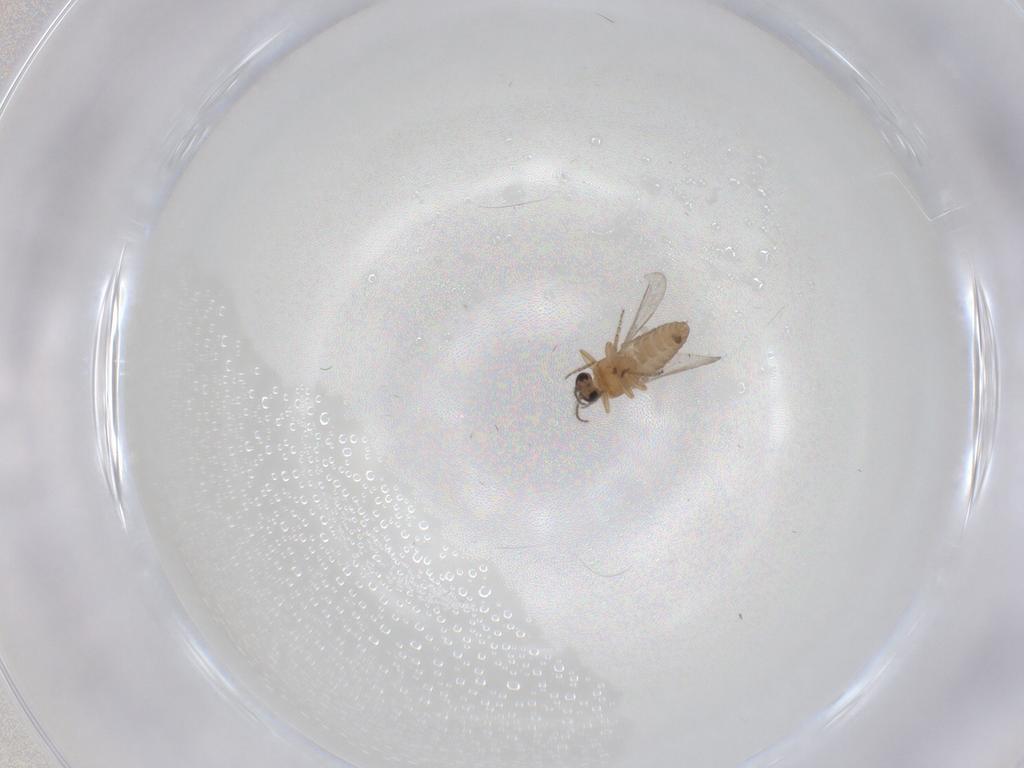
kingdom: Animalia
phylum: Arthropoda
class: Insecta
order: Diptera
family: Ceratopogonidae
